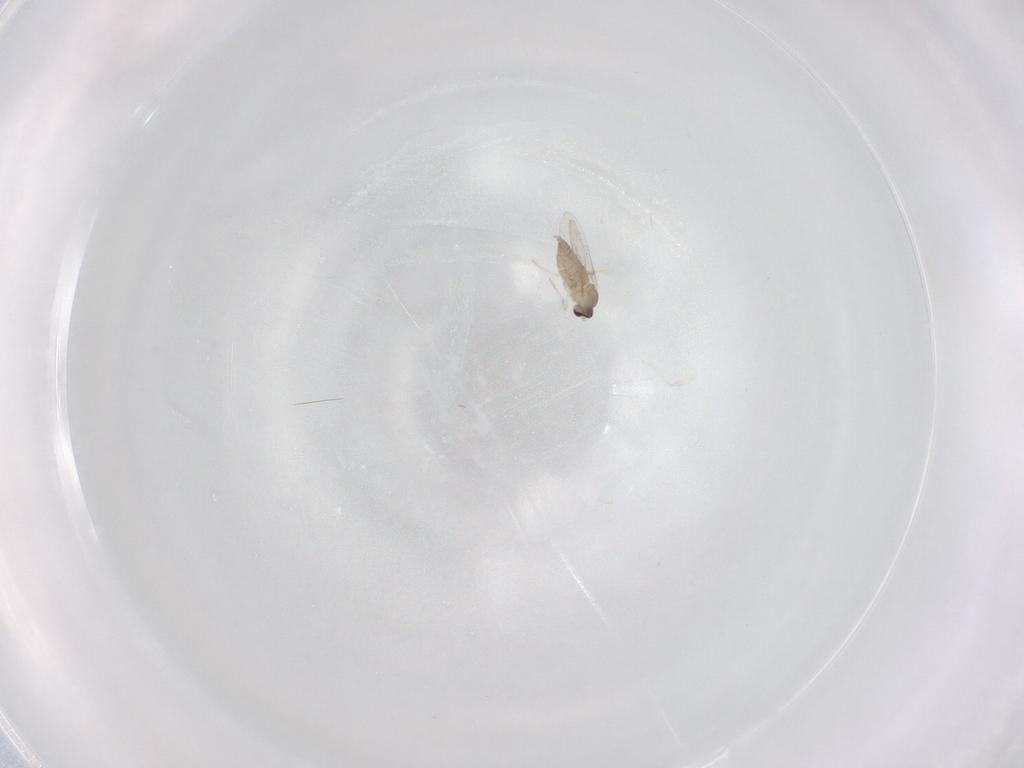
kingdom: Animalia
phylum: Arthropoda
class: Insecta
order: Diptera
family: Cecidomyiidae
